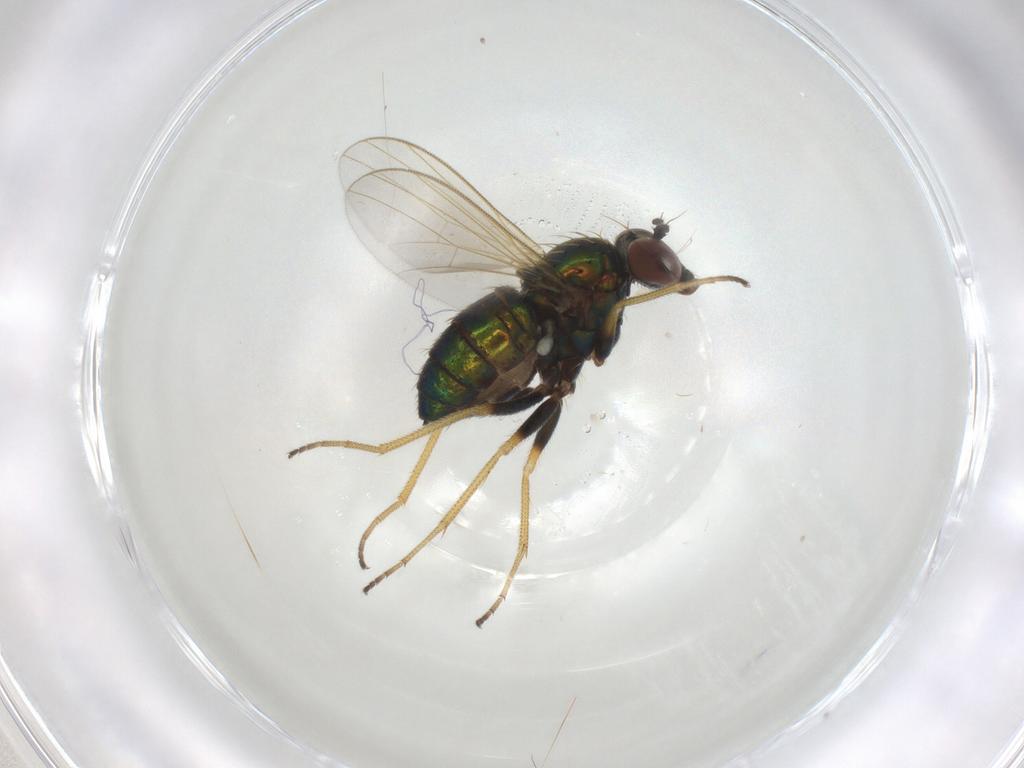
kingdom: Animalia
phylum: Arthropoda
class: Insecta
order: Diptera
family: Dolichopodidae
